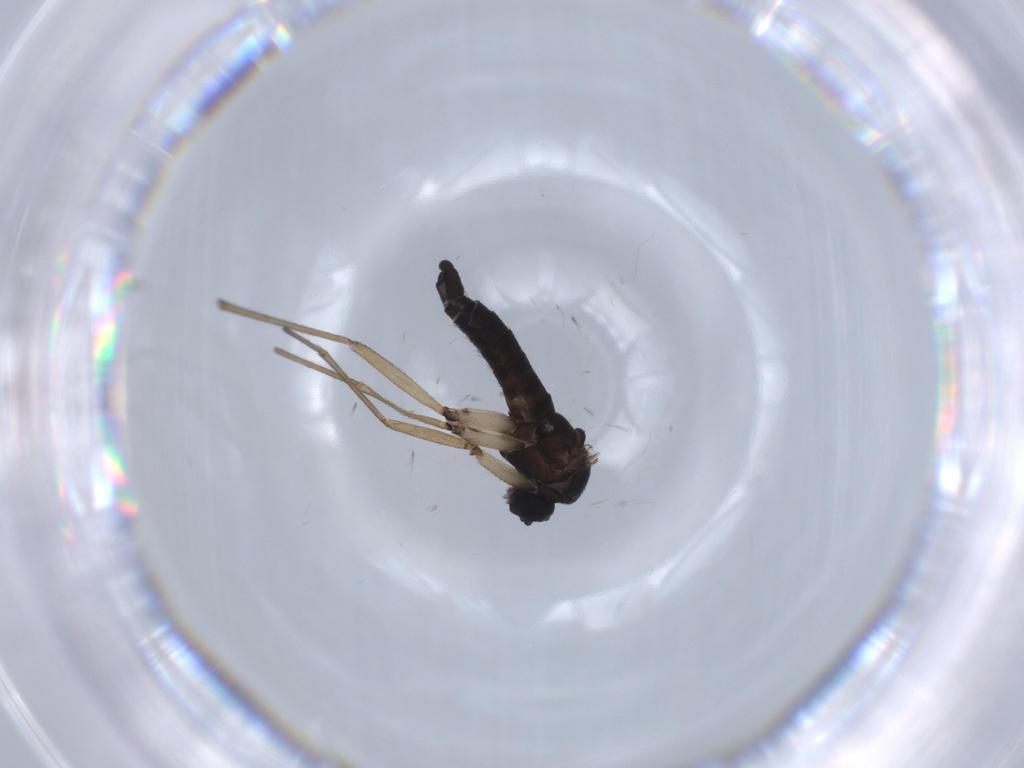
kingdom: Animalia
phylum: Arthropoda
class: Insecta
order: Diptera
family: Sciaridae
